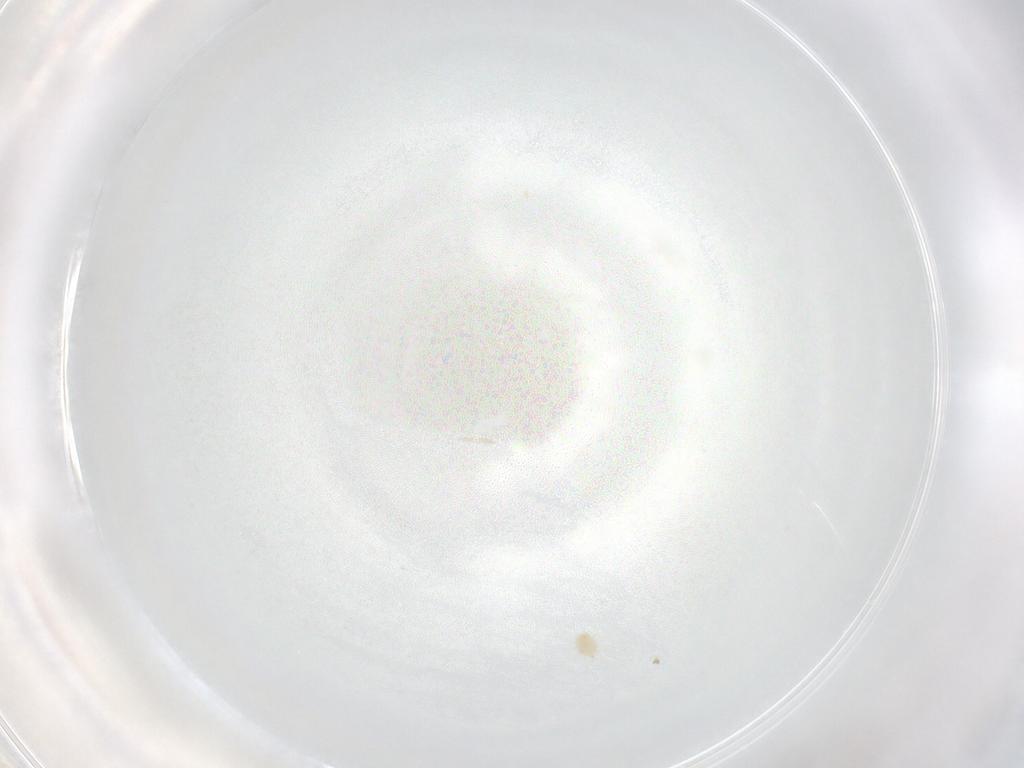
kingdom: Animalia
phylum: Arthropoda
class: Arachnida
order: Mesostigmata
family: Phytoseiidae
